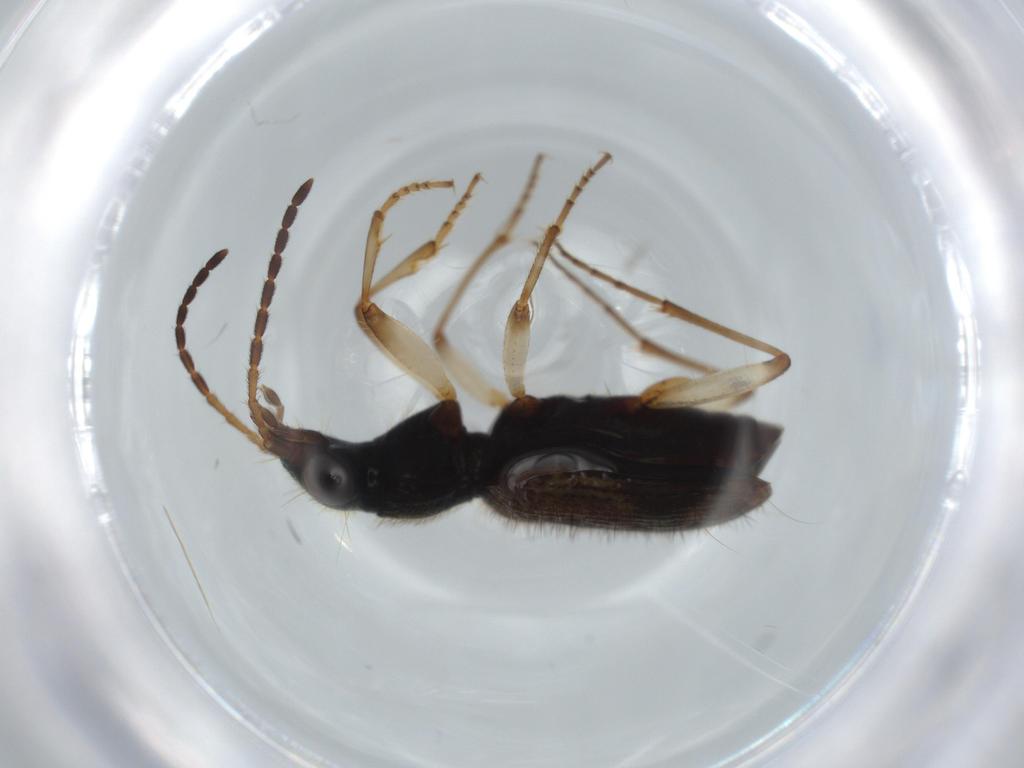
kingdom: Animalia
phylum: Arthropoda
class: Insecta
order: Coleoptera
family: Carabidae
